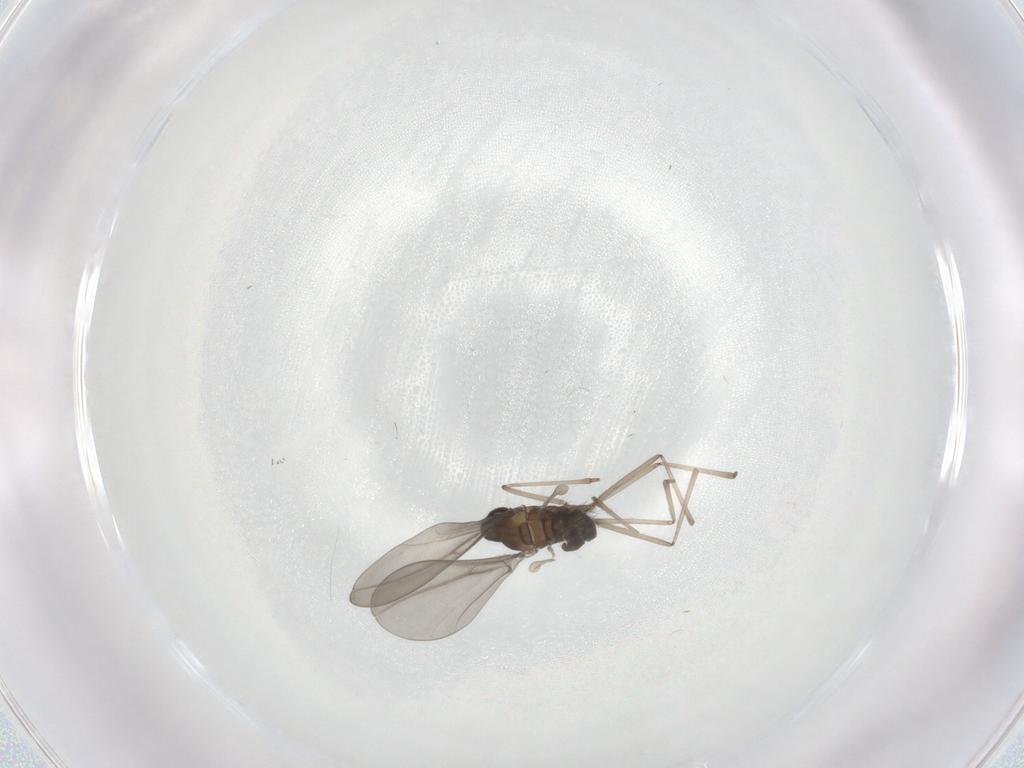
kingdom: Animalia
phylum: Arthropoda
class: Insecta
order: Diptera
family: Cecidomyiidae
